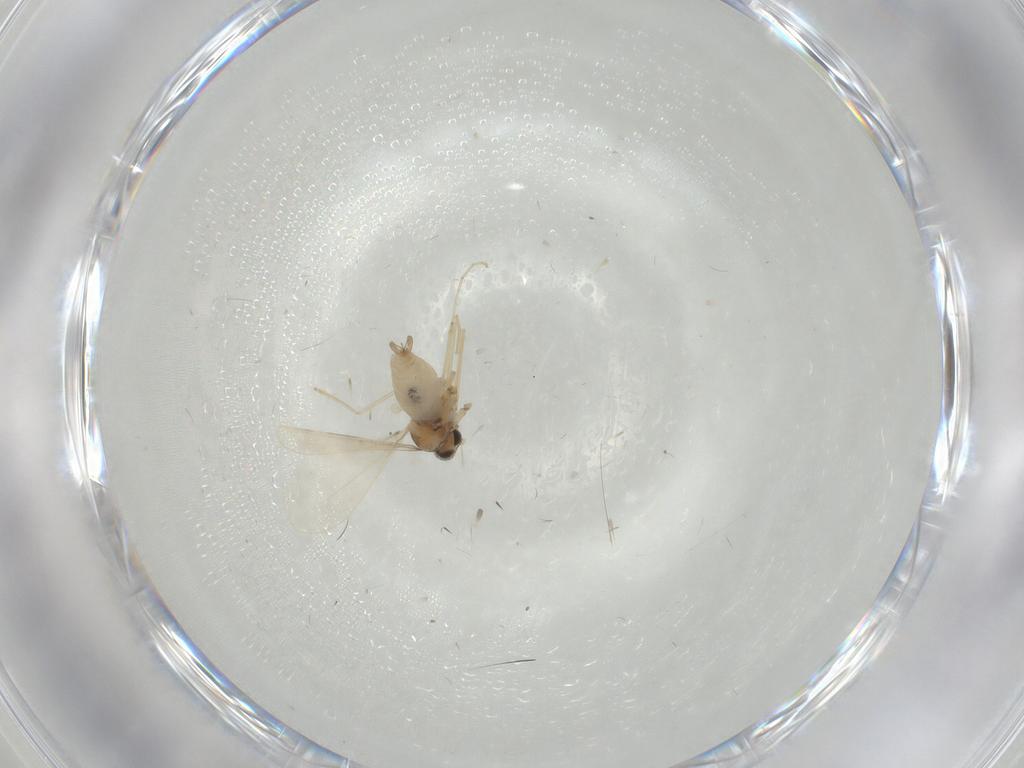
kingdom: Animalia
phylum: Arthropoda
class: Insecta
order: Diptera
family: Cecidomyiidae
